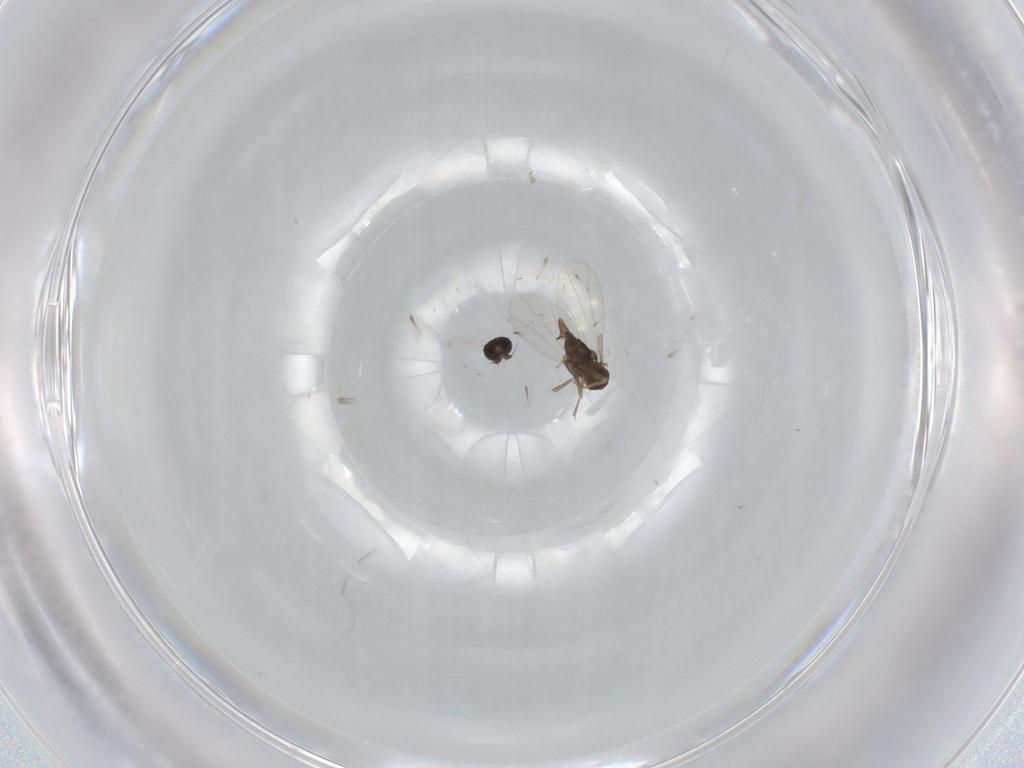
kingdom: Animalia
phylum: Arthropoda
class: Insecta
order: Diptera
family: Phoridae
